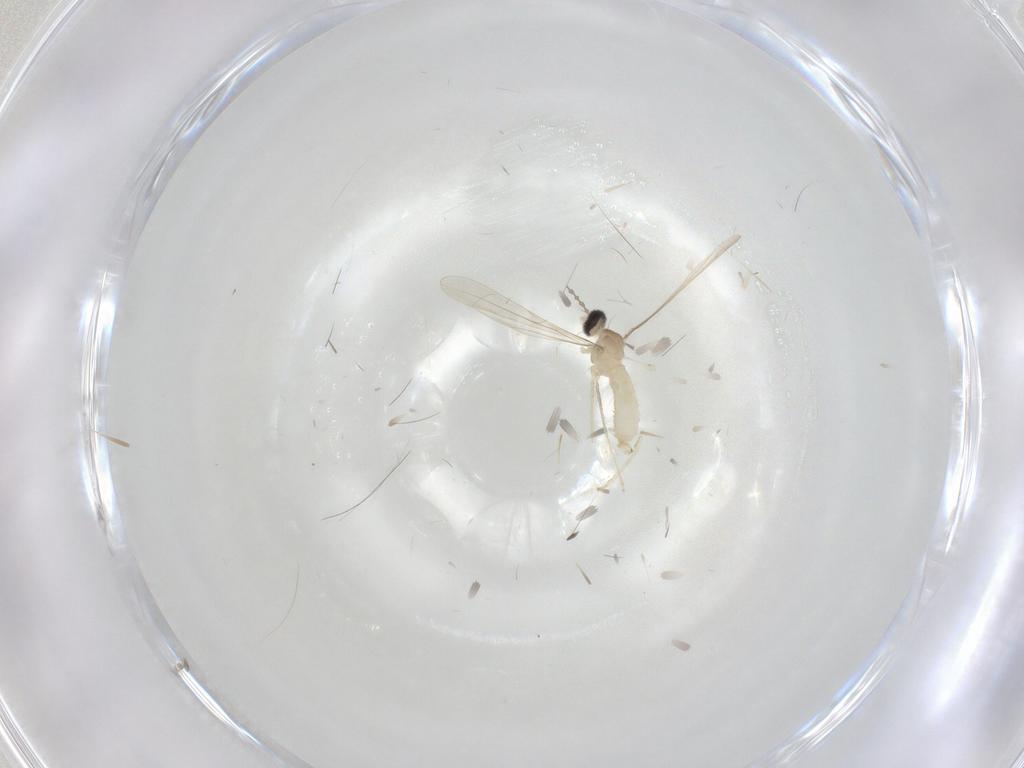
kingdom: Animalia
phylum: Arthropoda
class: Insecta
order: Diptera
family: Cecidomyiidae
